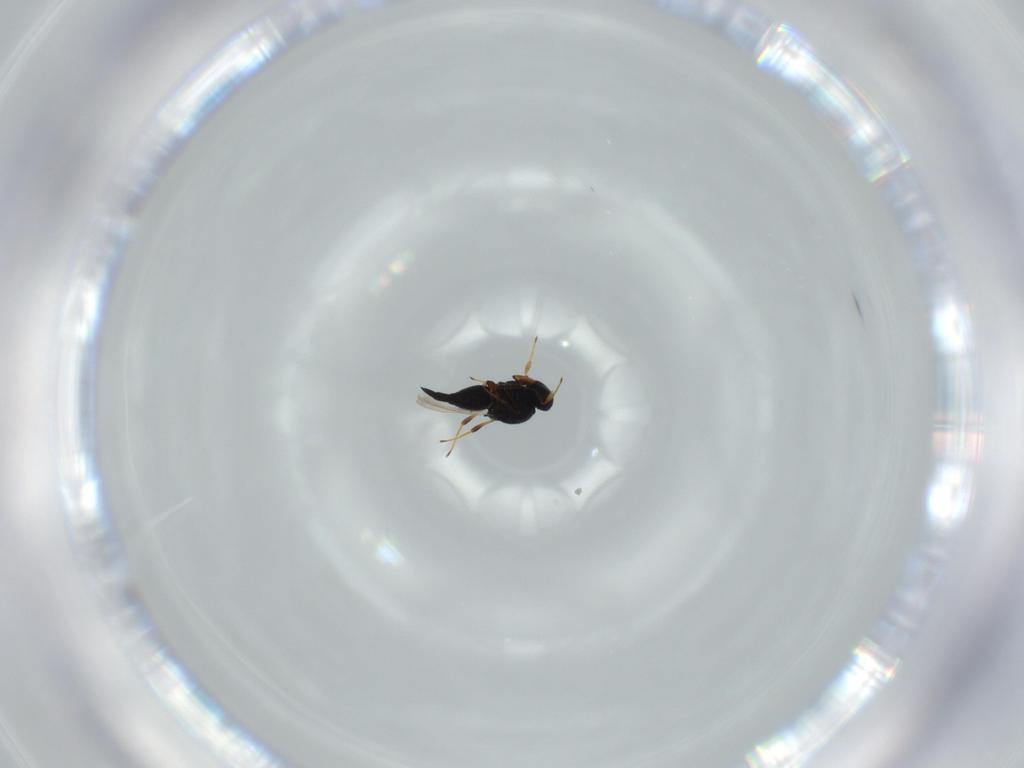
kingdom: Animalia
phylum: Arthropoda
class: Insecta
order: Hymenoptera
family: Platygastridae
